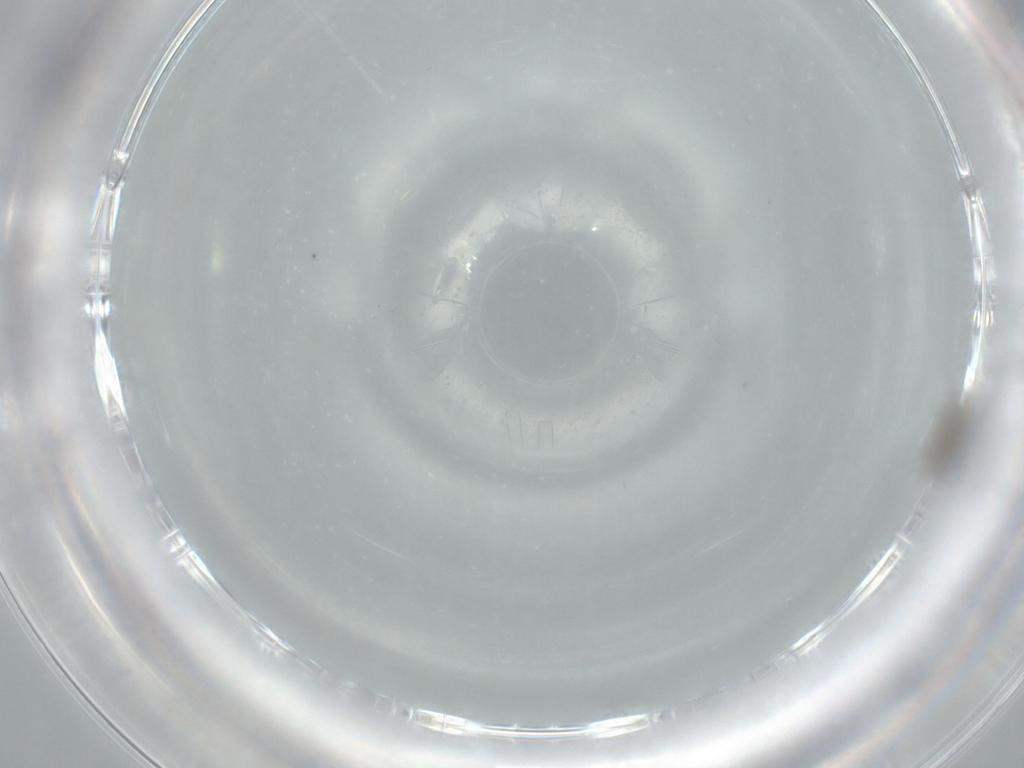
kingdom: Animalia
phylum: Arthropoda
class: Insecta
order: Diptera
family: Phoridae
